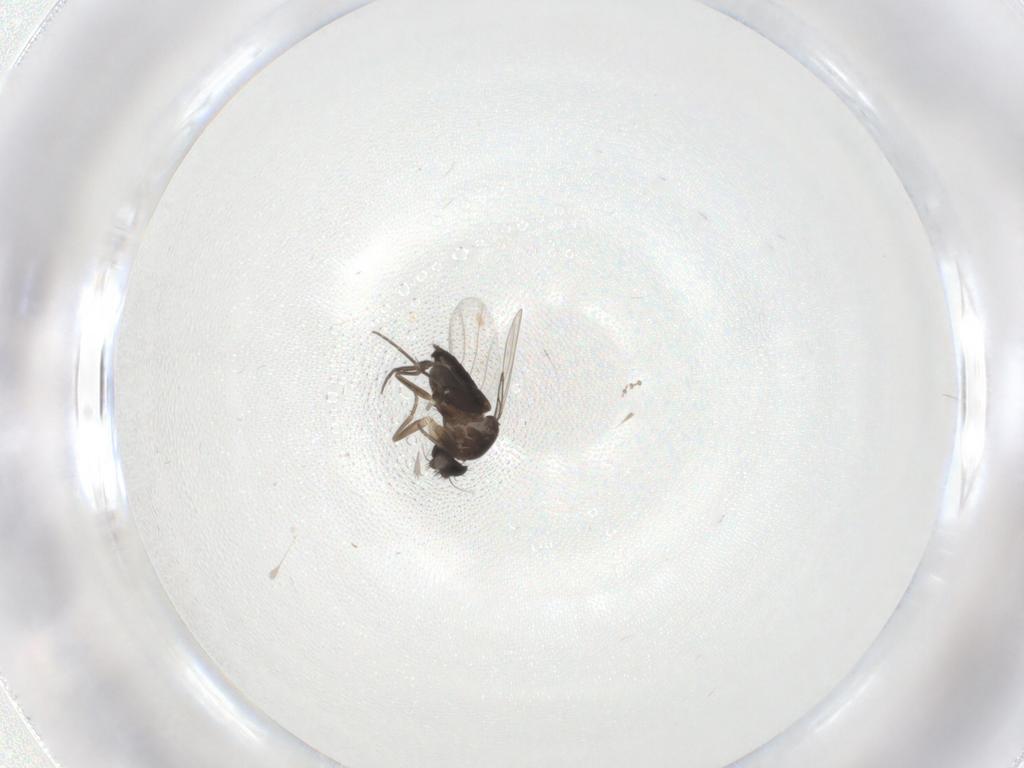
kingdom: Animalia
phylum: Arthropoda
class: Insecta
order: Diptera
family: Phoridae
